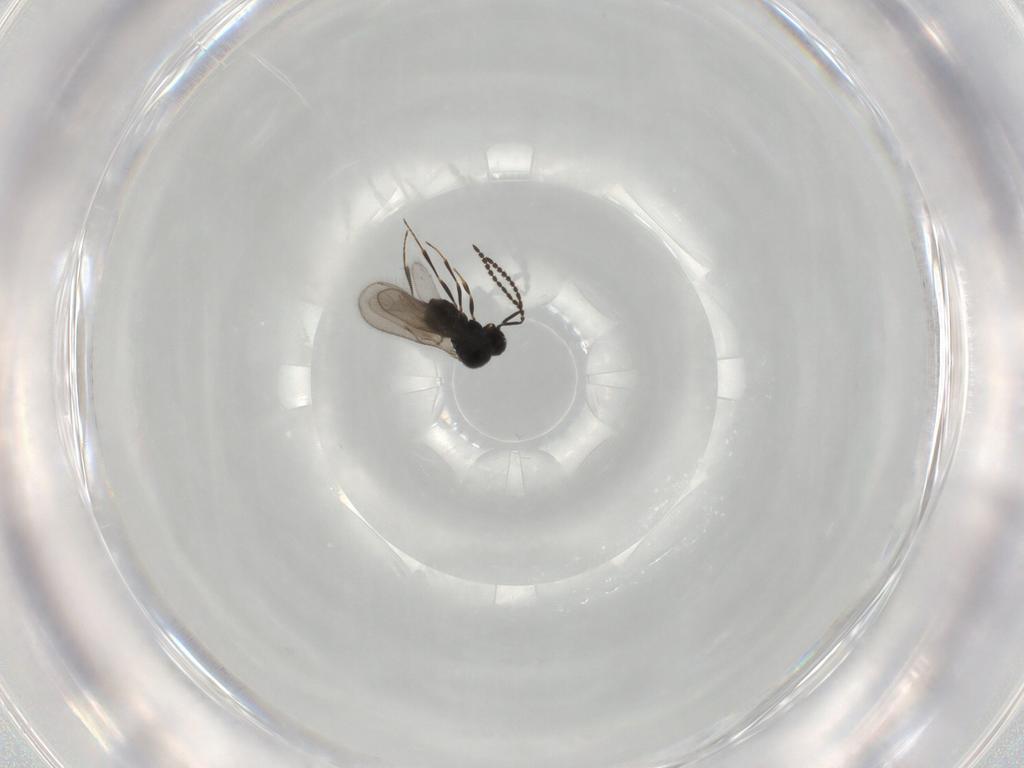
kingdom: Animalia
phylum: Arthropoda
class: Insecta
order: Hymenoptera
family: Scelionidae
